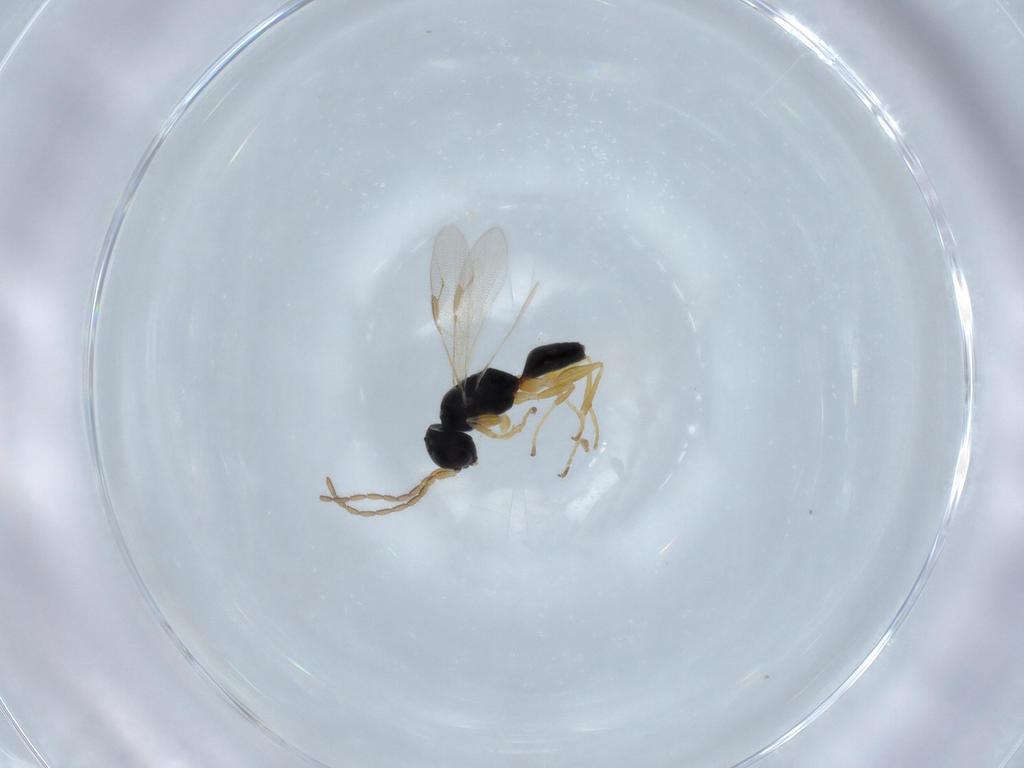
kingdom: Animalia
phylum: Arthropoda
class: Insecta
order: Hymenoptera
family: Dryinidae
